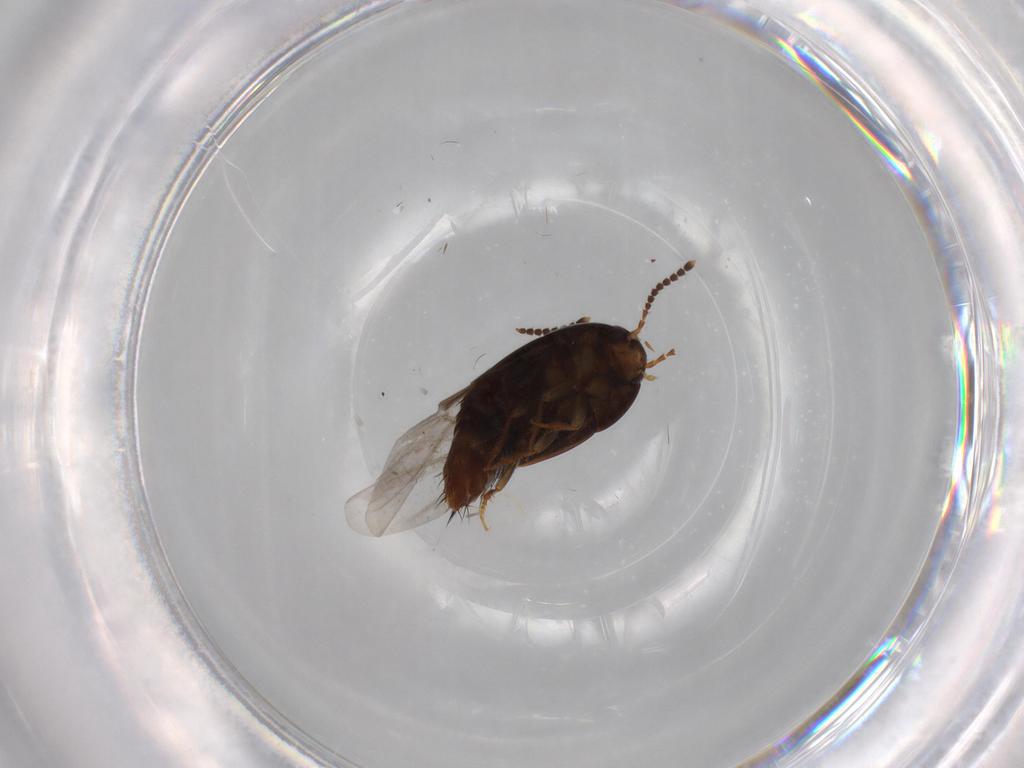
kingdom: Animalia
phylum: Arthropoda
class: Insecta
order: Coleoptera
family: Staphylinidae
